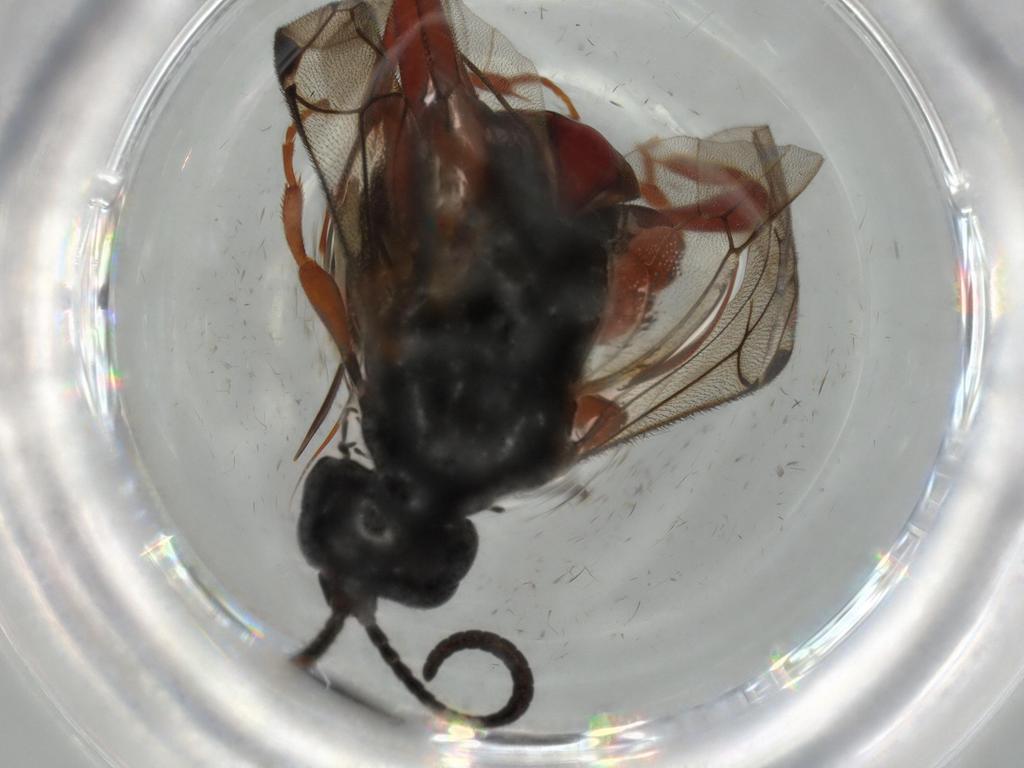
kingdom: Animalia
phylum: Arthropoda
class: Insecta
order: Hymenoptera
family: Ichneumonidae
